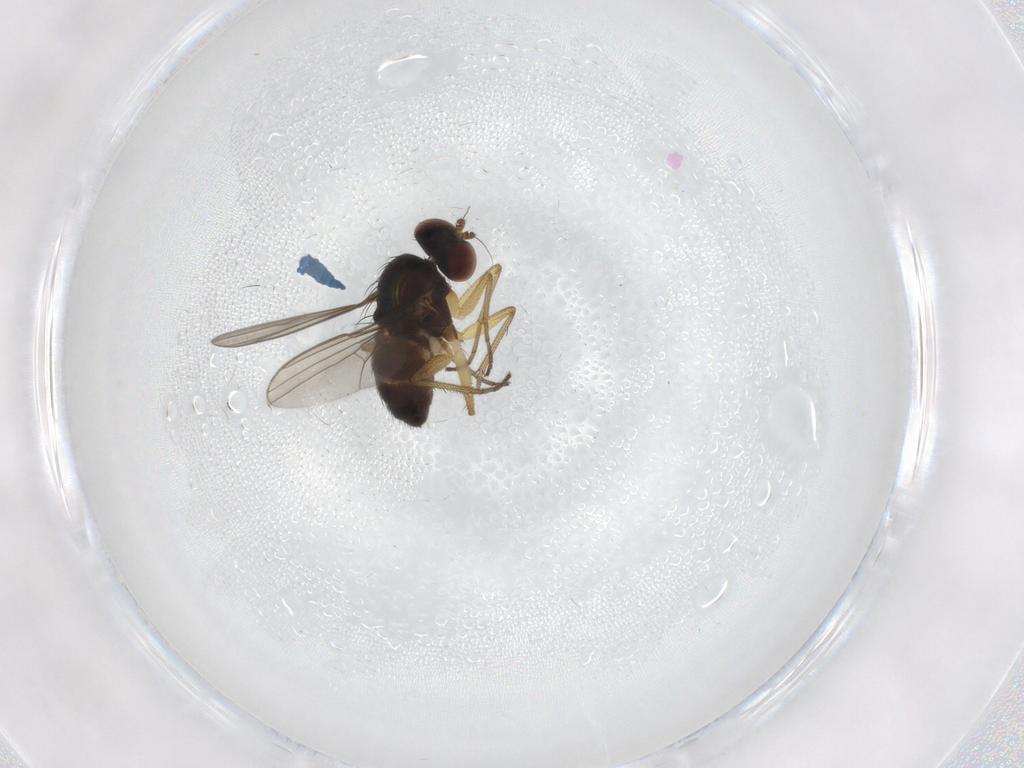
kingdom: Animalia
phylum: Arthropoda
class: Insecta
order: Diptera
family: Dolichopodidae
